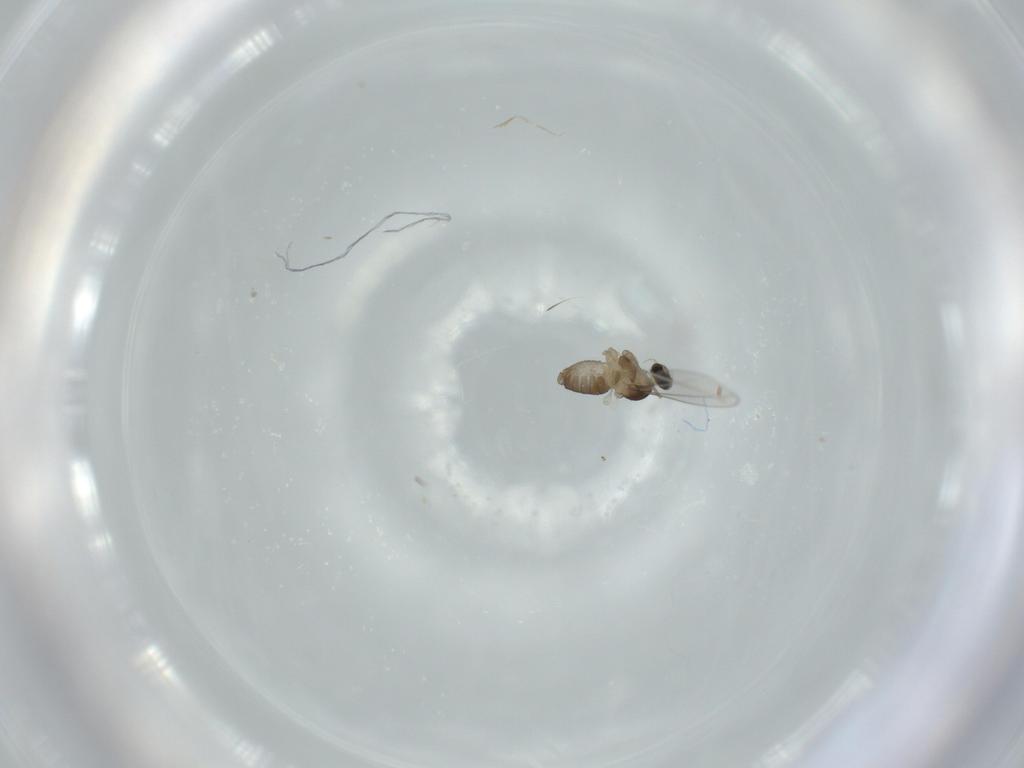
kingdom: Animalia
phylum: Arthropoda
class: Insecta
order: Diptera
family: Cecidomyiidae
